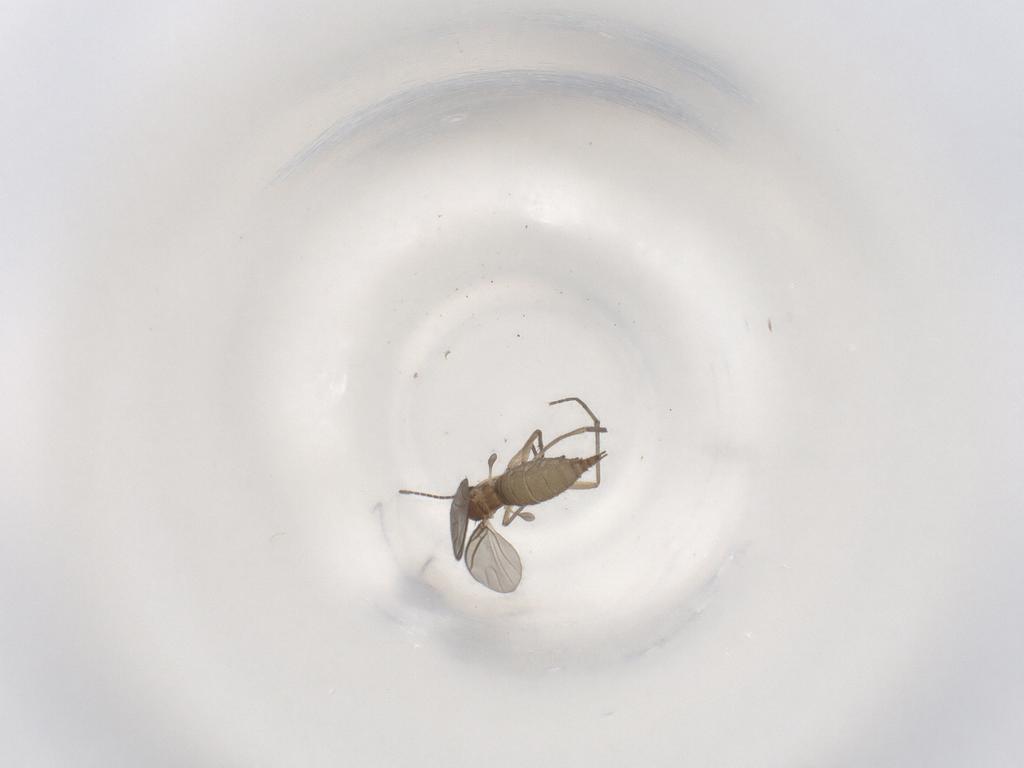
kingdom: Animalia
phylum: Arthropoda
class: Insecta
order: Diptera
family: Sciaridae
